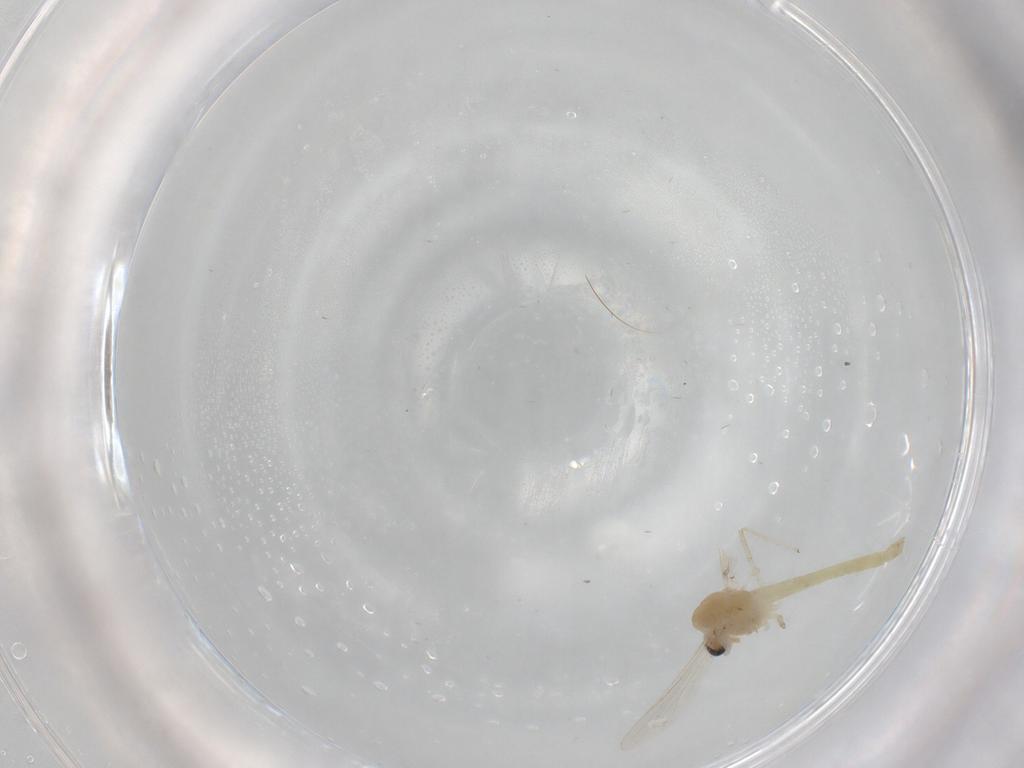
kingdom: Animalia
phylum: Arthropoda
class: Insecta
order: Diptera
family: Chironomidae
